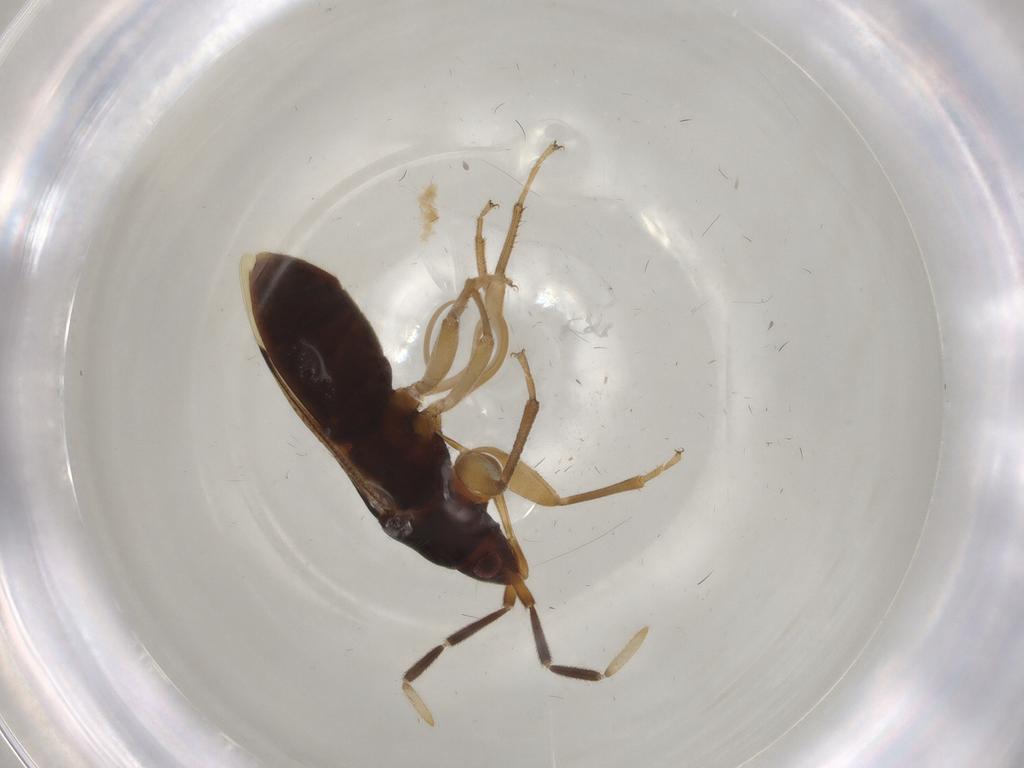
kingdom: Animalia
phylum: Arthropoda
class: Insecta
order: Hemiptera
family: Rhyparochromidae
